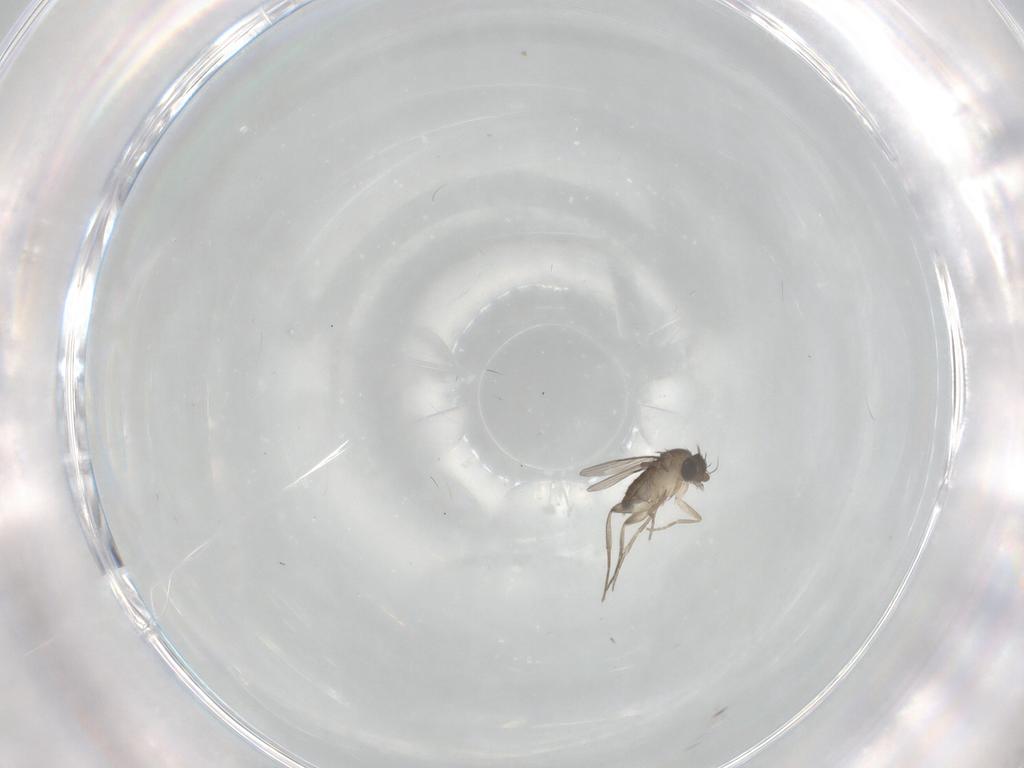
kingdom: Animalia
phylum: Arthropoda
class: Insecta
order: Diptera
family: Phoridae
